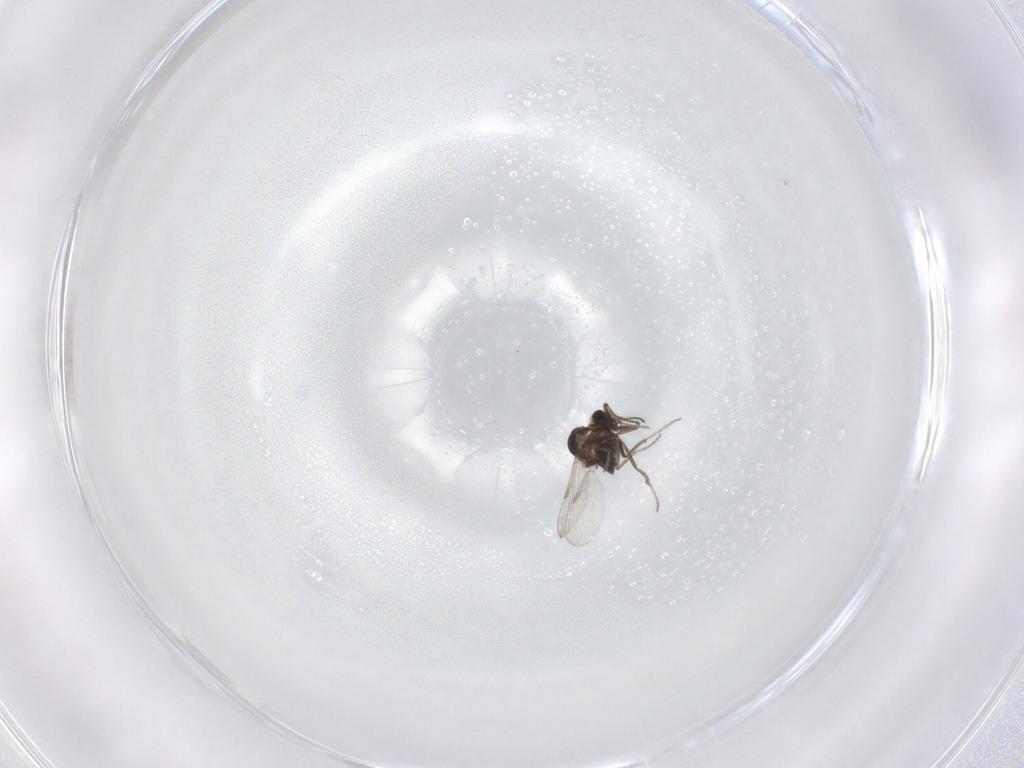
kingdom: Animalia
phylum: Arthropoda
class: Insecta
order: Diptera
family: Ceratopogonidae
